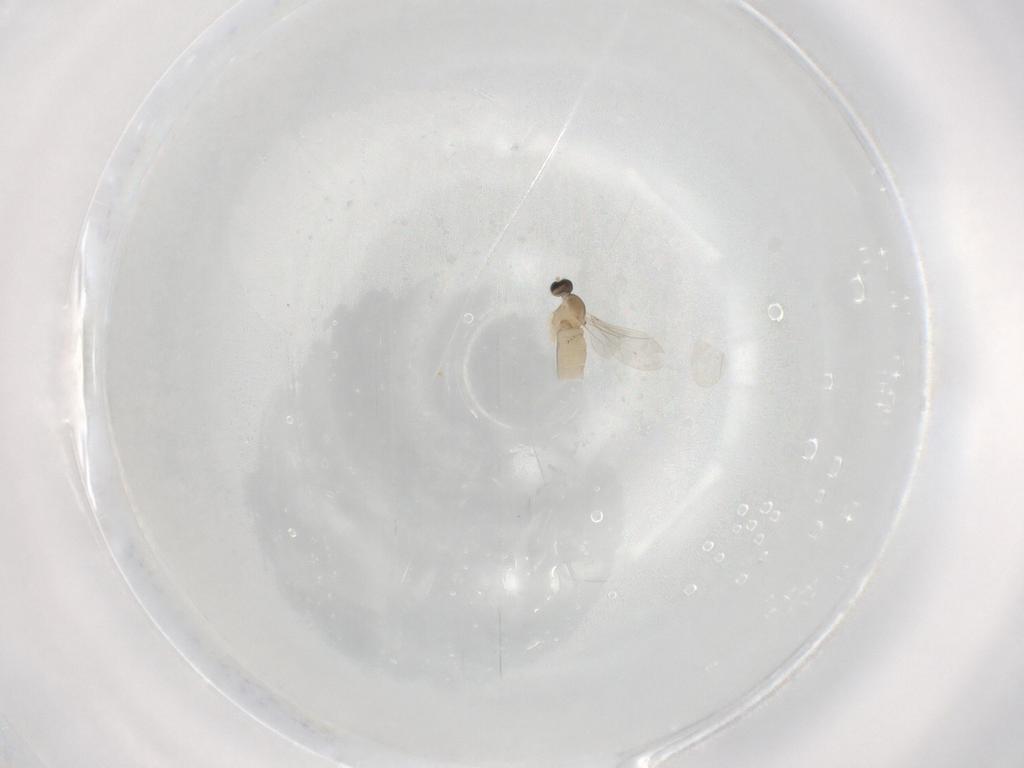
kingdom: Animalia
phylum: Arthropoda
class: Insecta
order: Diptera
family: Cecidomyiidae
